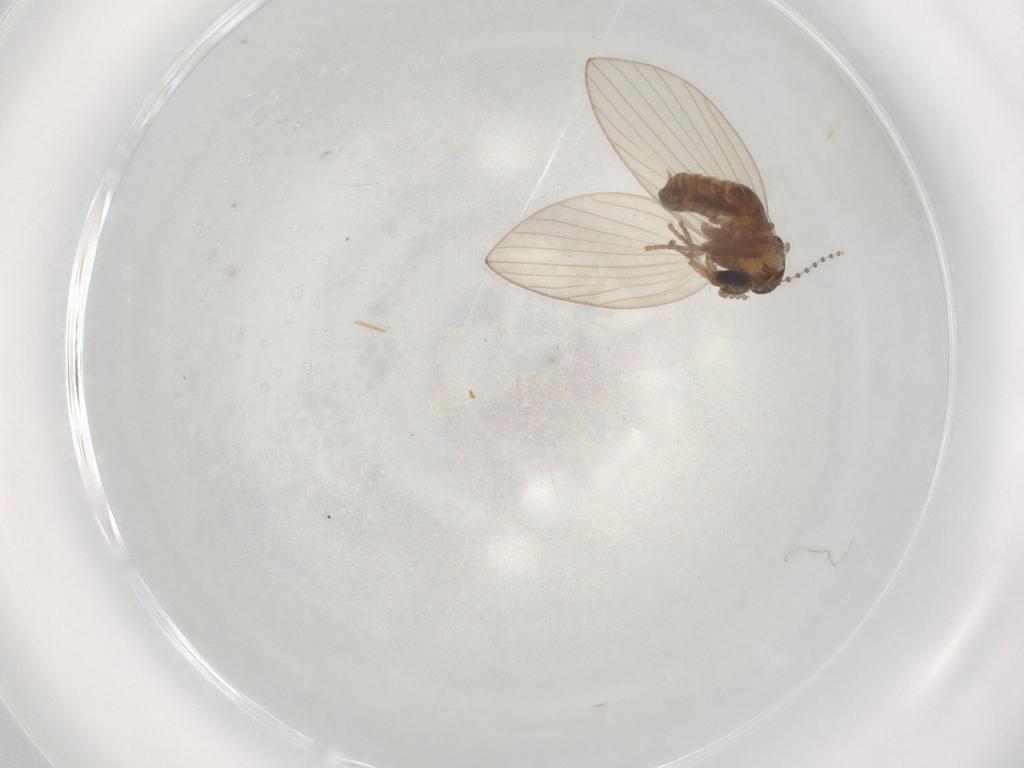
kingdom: Animalia
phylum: Arthropoda
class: Insecta
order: Diptera
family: Psychodidae
